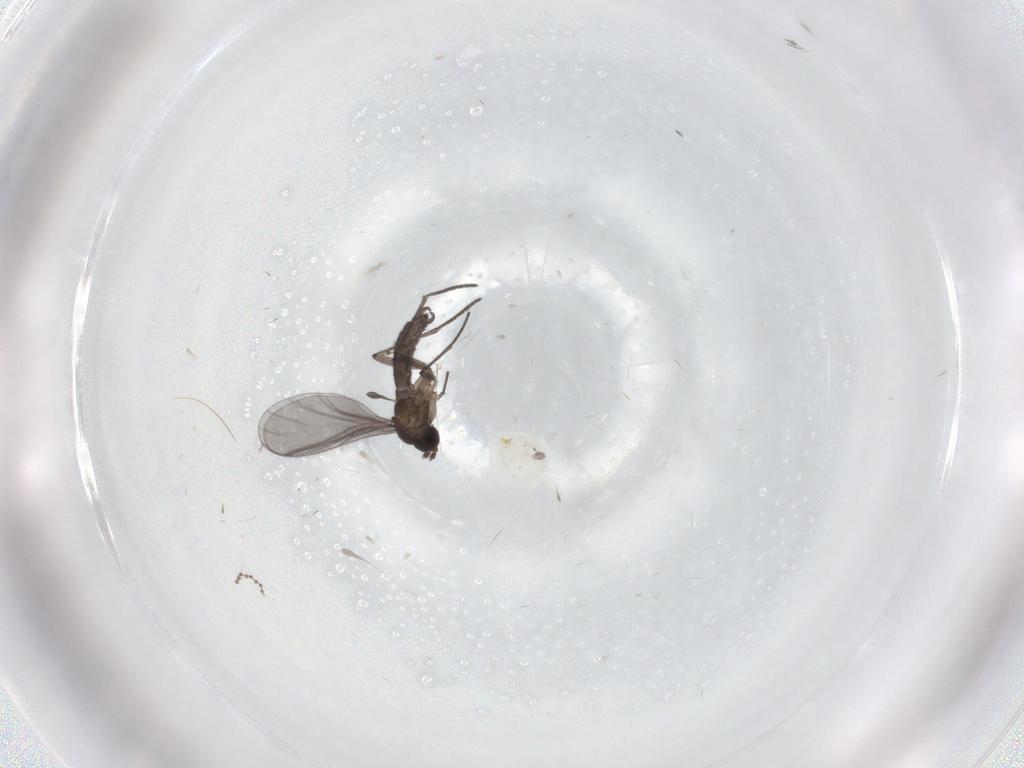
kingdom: Animalia
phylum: Arthropoda
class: Insecta
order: Diptera
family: Cecidomyiidae
